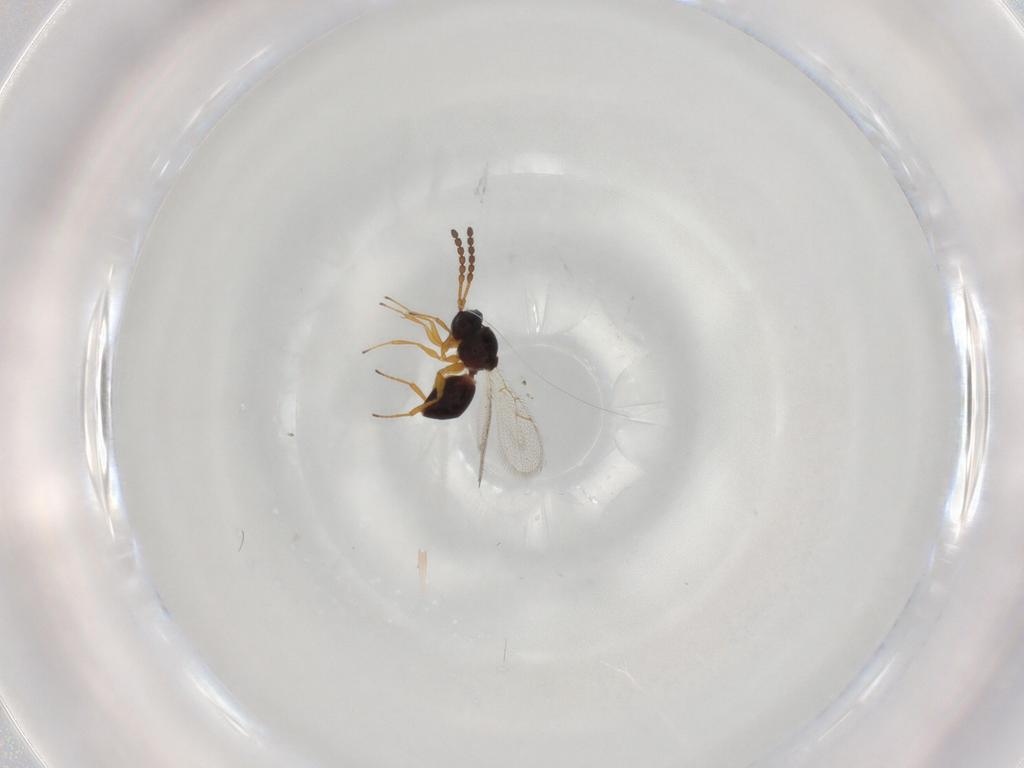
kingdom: Animalia
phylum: Arthropoda
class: Insecta
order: Hymenoptera
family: Figitidae
